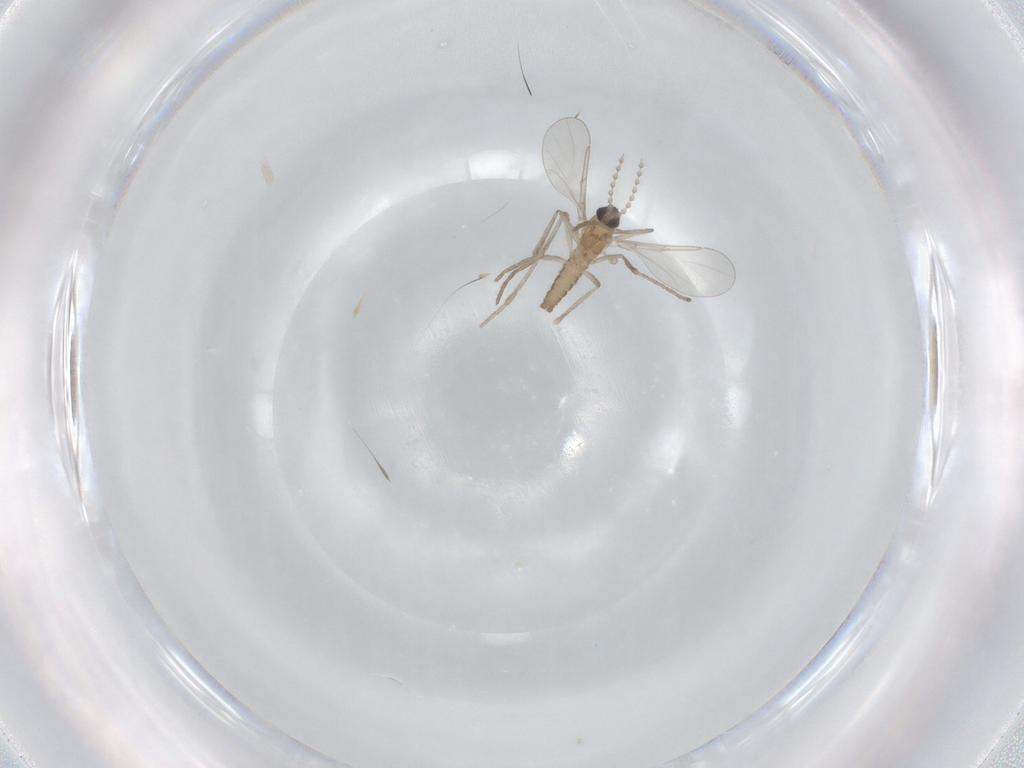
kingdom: Animalia
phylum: Arthropoda
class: Insecta
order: Diptera
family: Cecidomyiidae
